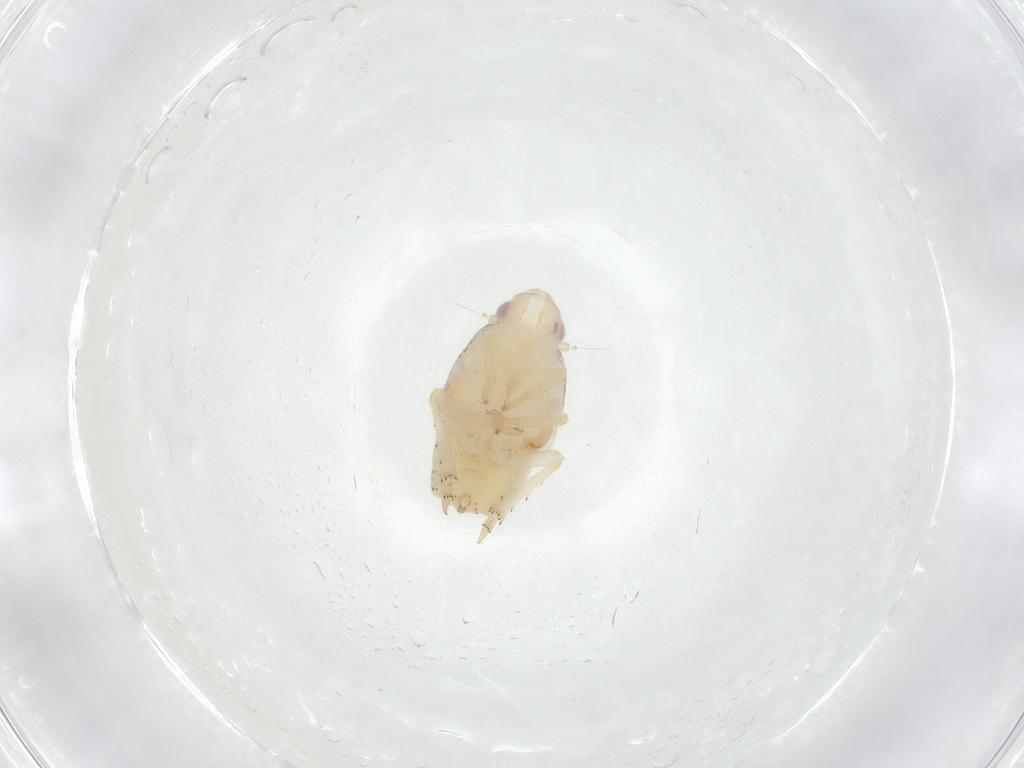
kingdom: Animalia
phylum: Arthropoda
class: Insecta
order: Hemiptera
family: Flatidae
